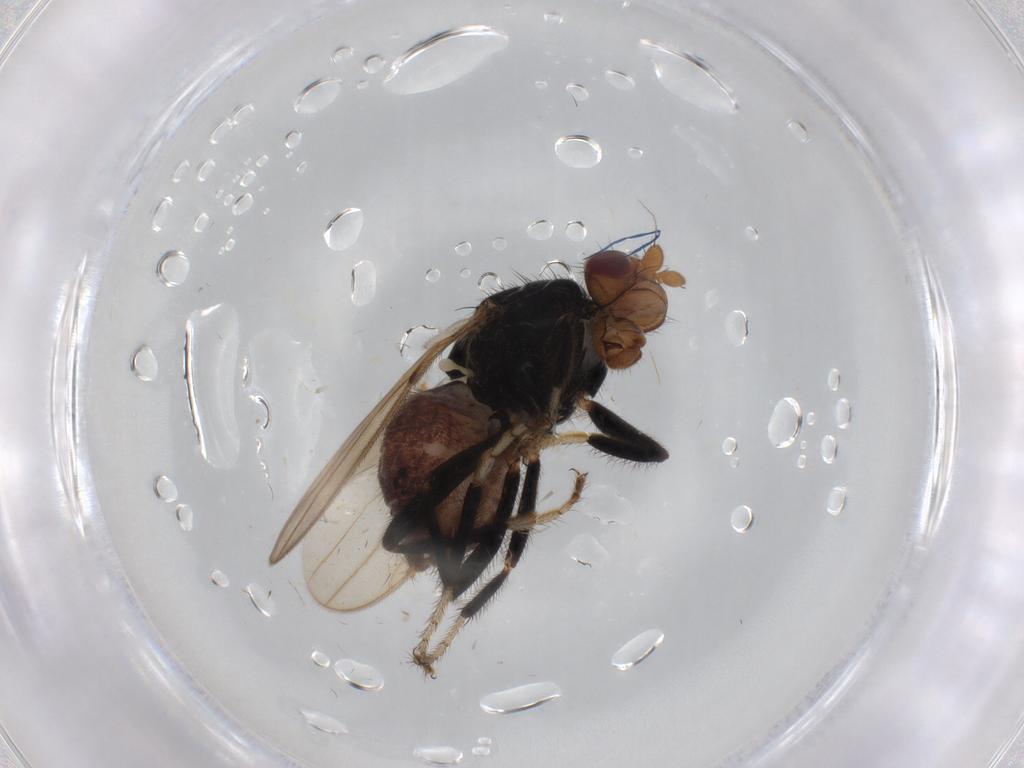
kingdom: Animalia
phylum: Arthropoda
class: Insecta
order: Diptera
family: Sphaeroceridae
